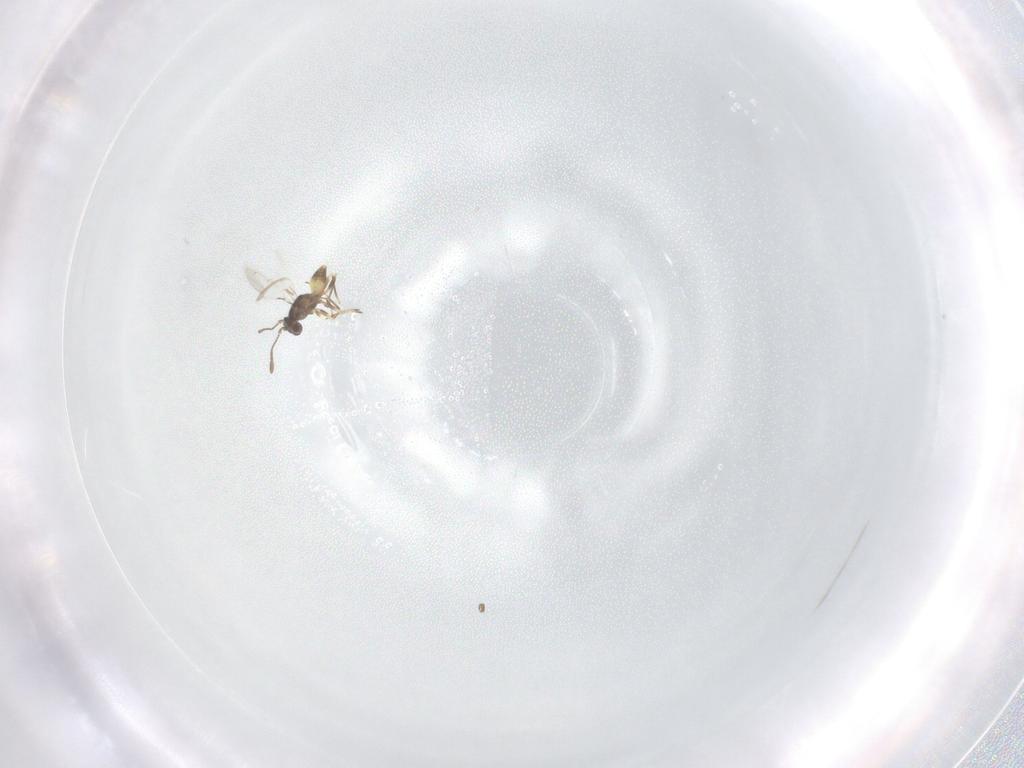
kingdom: Animalia
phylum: Arthropoda
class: Insecta
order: Hymenoptera
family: Mymaridae
